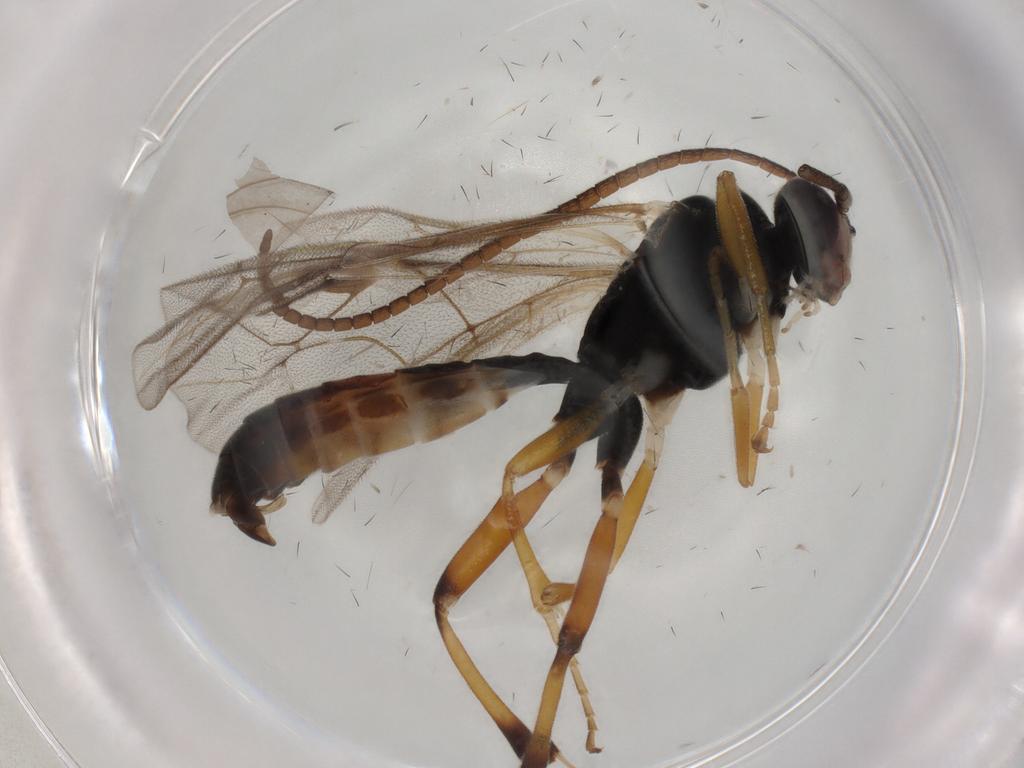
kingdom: Animalia
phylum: Arthropoda
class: Insecta
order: Hymenoptera
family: Ichneumonidae
